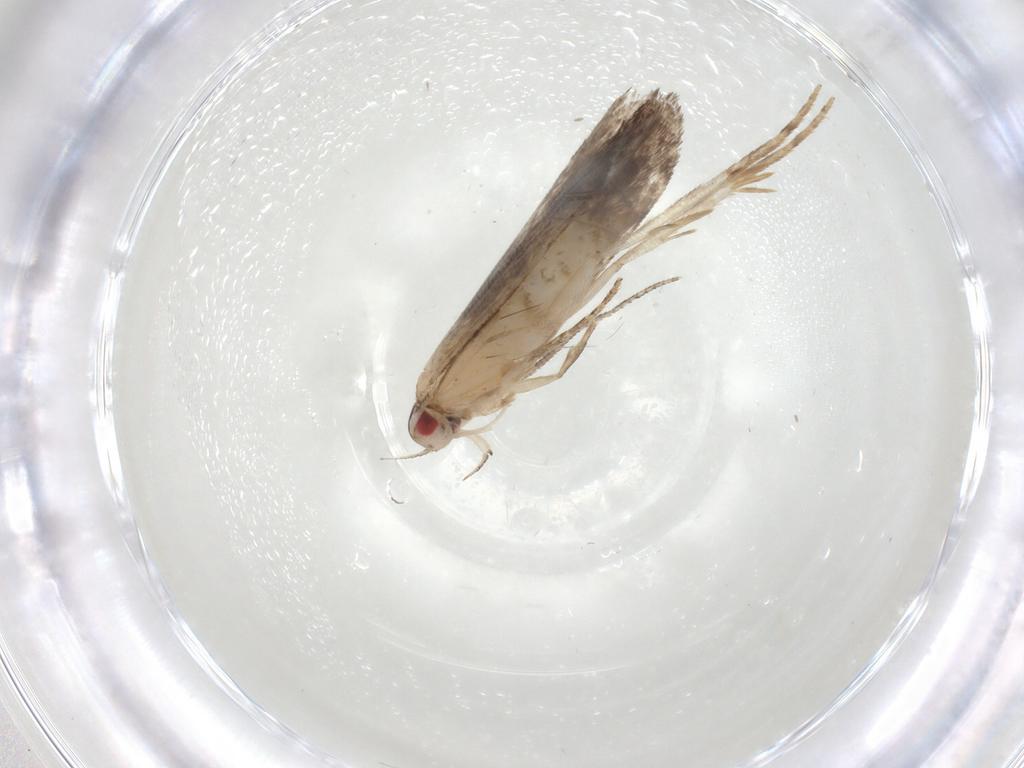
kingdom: Animalia
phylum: Arthropoda
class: Insecta
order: Lepidoptera
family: Gelechiidae
